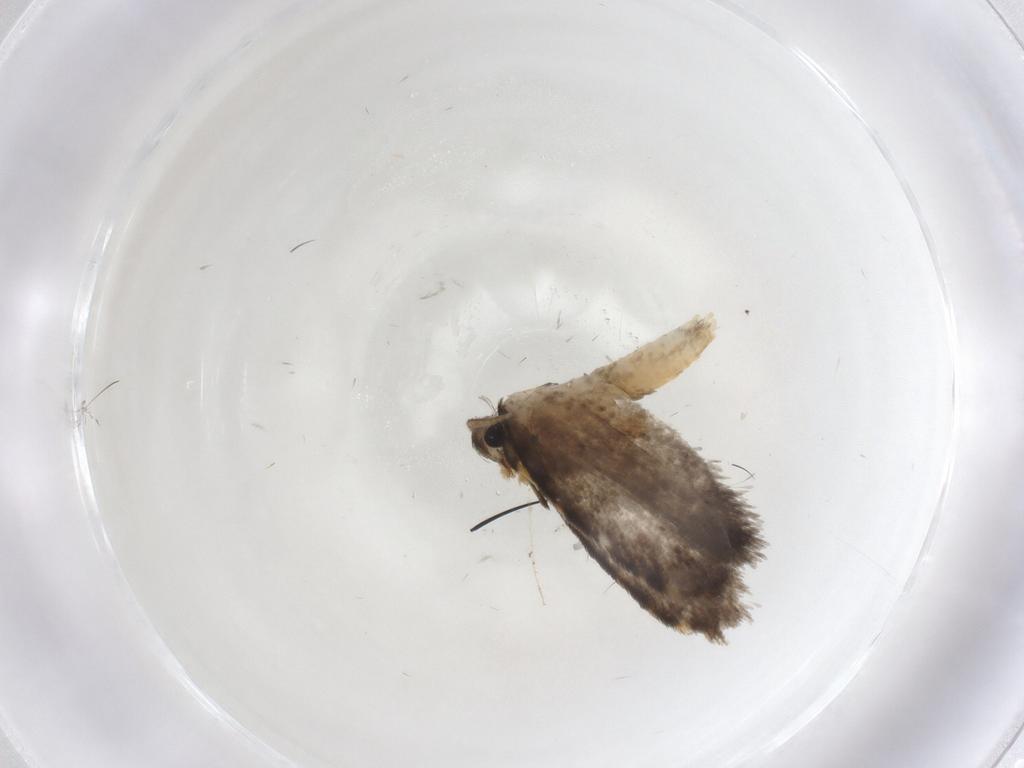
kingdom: Animalia
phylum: Arthropoda
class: Insecta
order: Lepidoptera
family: Psychidae
